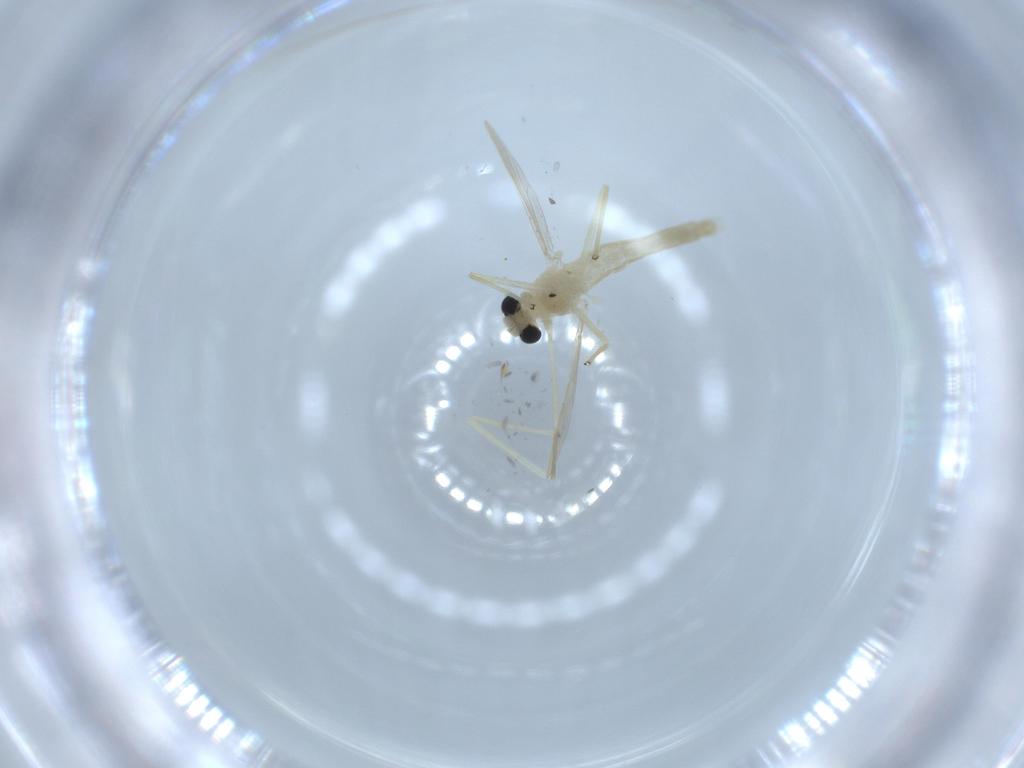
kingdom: Animalia
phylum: Arthropoda
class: Insecta
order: Diptera
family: Chironomidae
